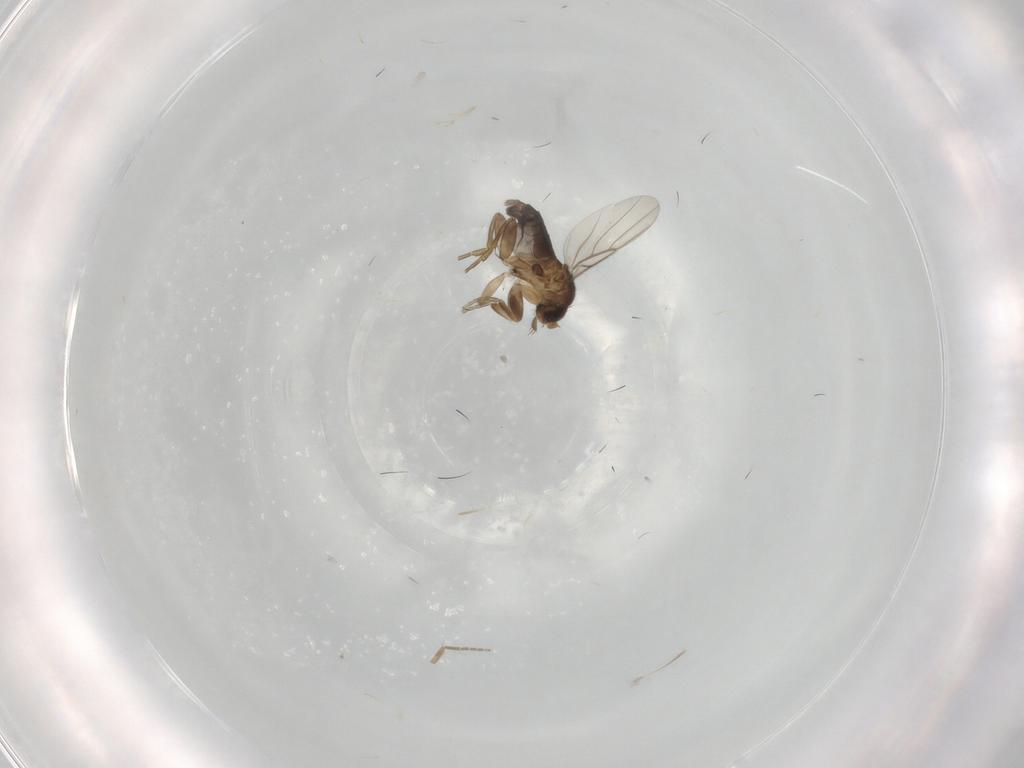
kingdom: Animalia
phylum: Arthropoda
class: Insecta
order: Diptera
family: Phoridae
